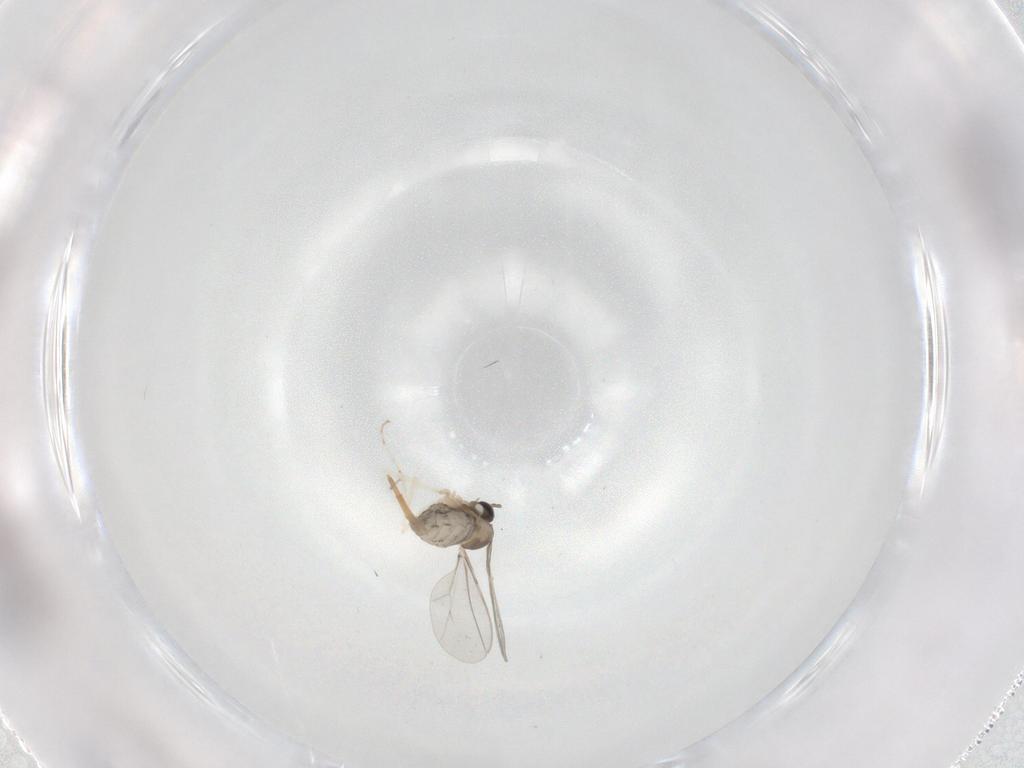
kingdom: Animalia
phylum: Arthropoda
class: Insecta
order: Diptera
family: Cecidomyiidae
